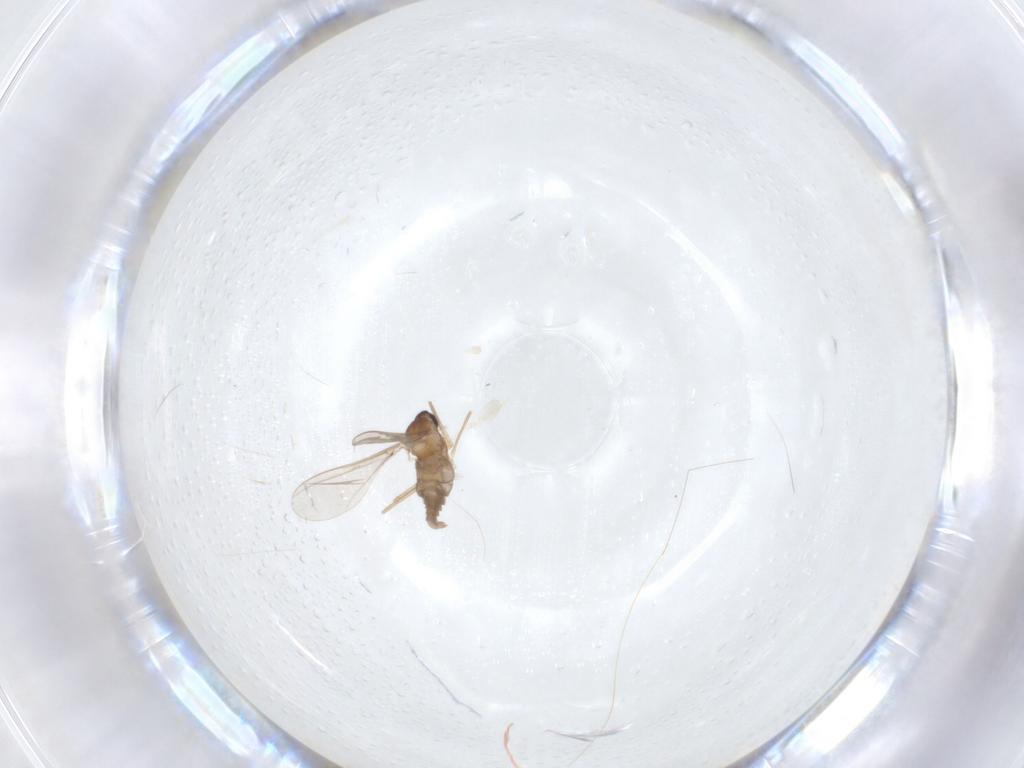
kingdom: Animalia
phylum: Arthropoda
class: Insecta
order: Diptera
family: Cecidomyiidae
